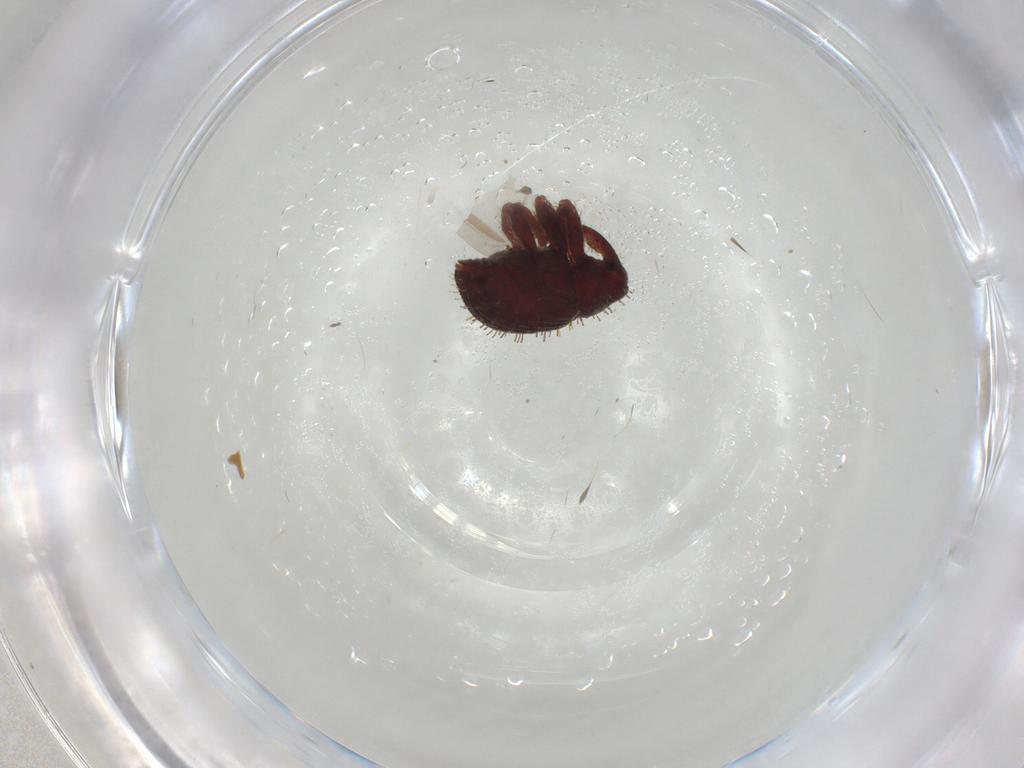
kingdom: Animalia
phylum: Arthropoda
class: Insecta
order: Coleoptera
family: Curculionidae
